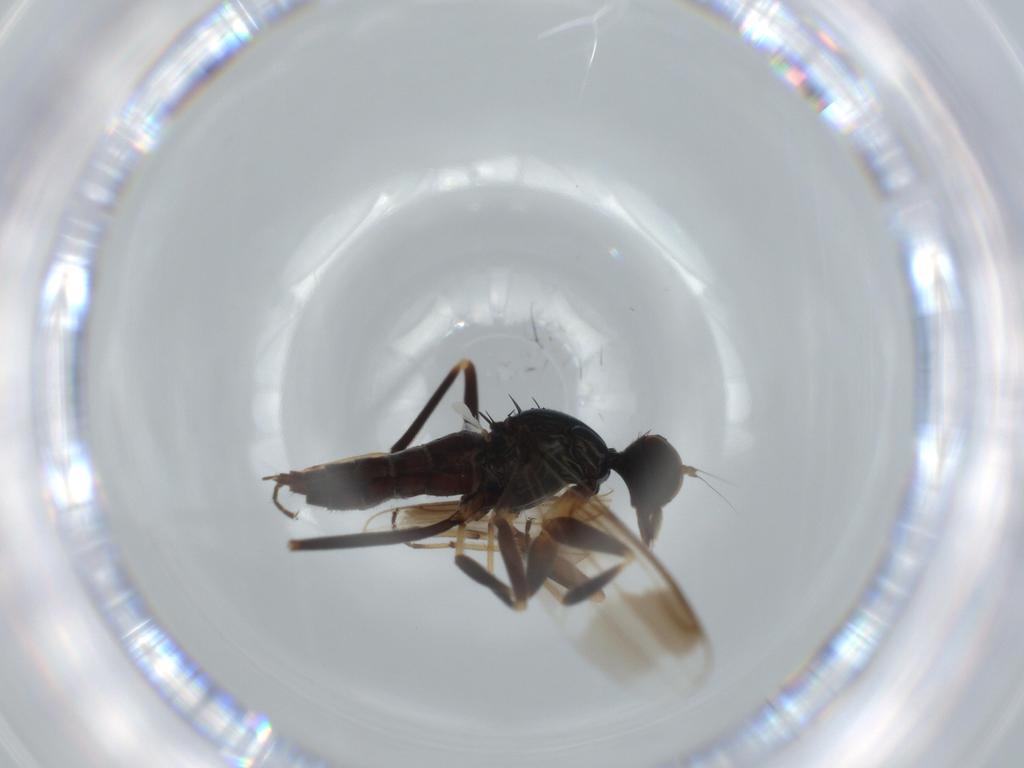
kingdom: Animalia
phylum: Arthropoda
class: Insecta
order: Diptera
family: Hybotidae
